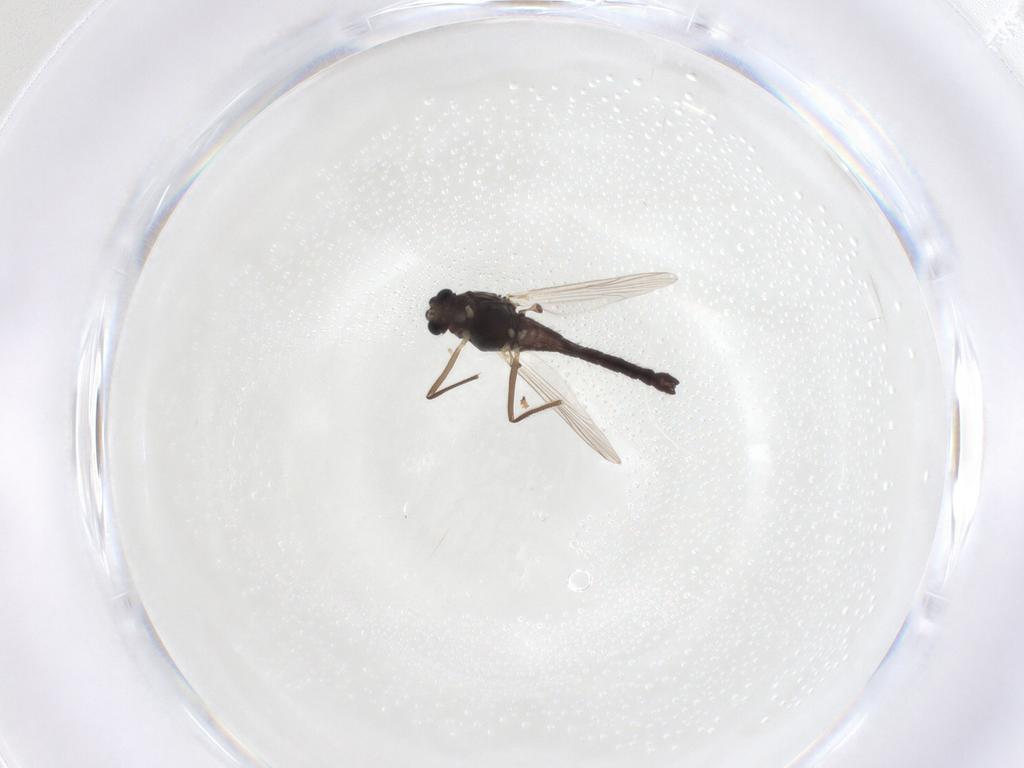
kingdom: Animalia
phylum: Arthropoda
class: Insecta
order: Diptera
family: Chironomidae
